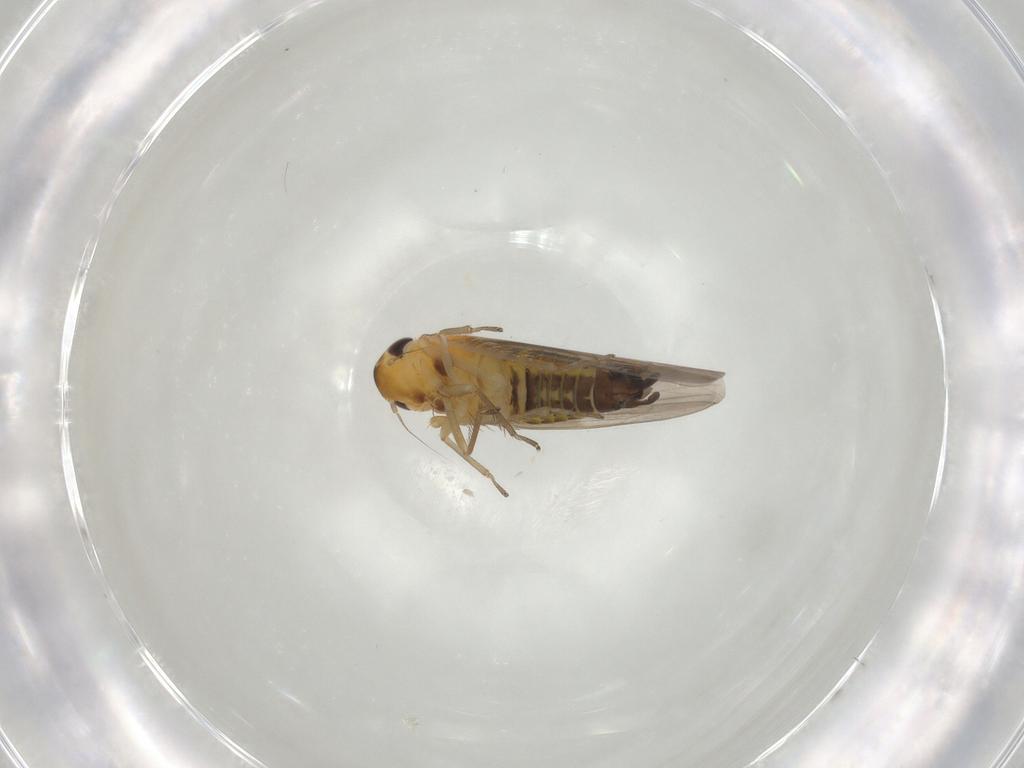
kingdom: Animalia
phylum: Arthropoda
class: Insecta
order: Hemiptera
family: Cicadellidae
